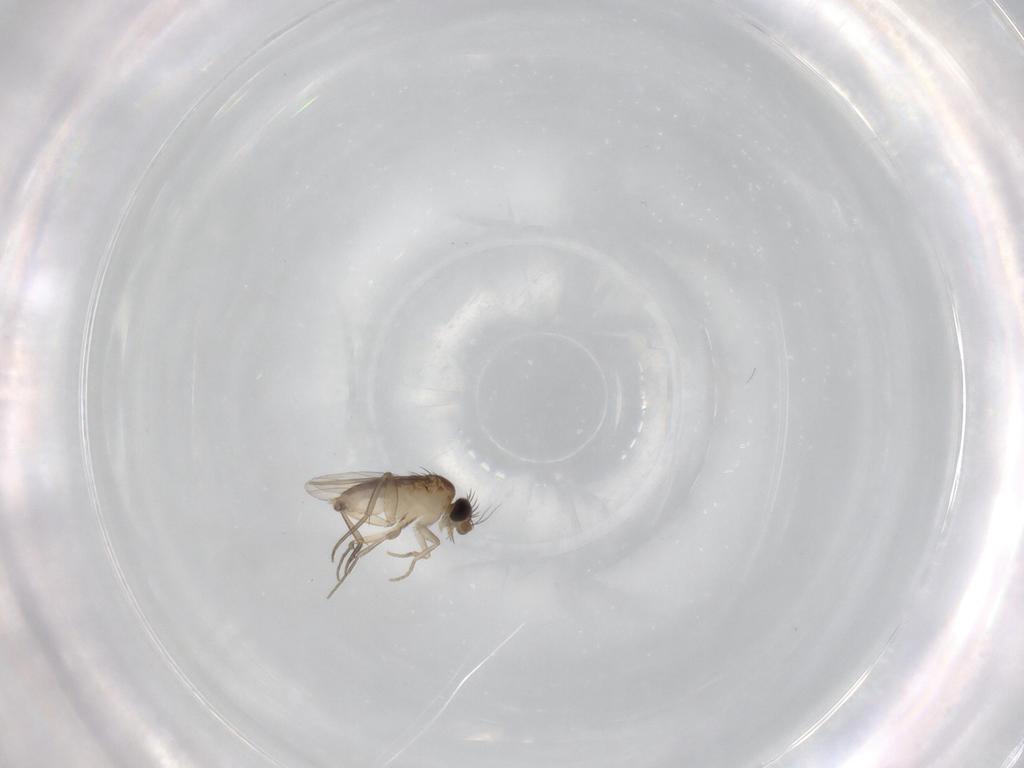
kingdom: Animalia
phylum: Arthropoda
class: Insecta
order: Diptera
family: Phoridae
